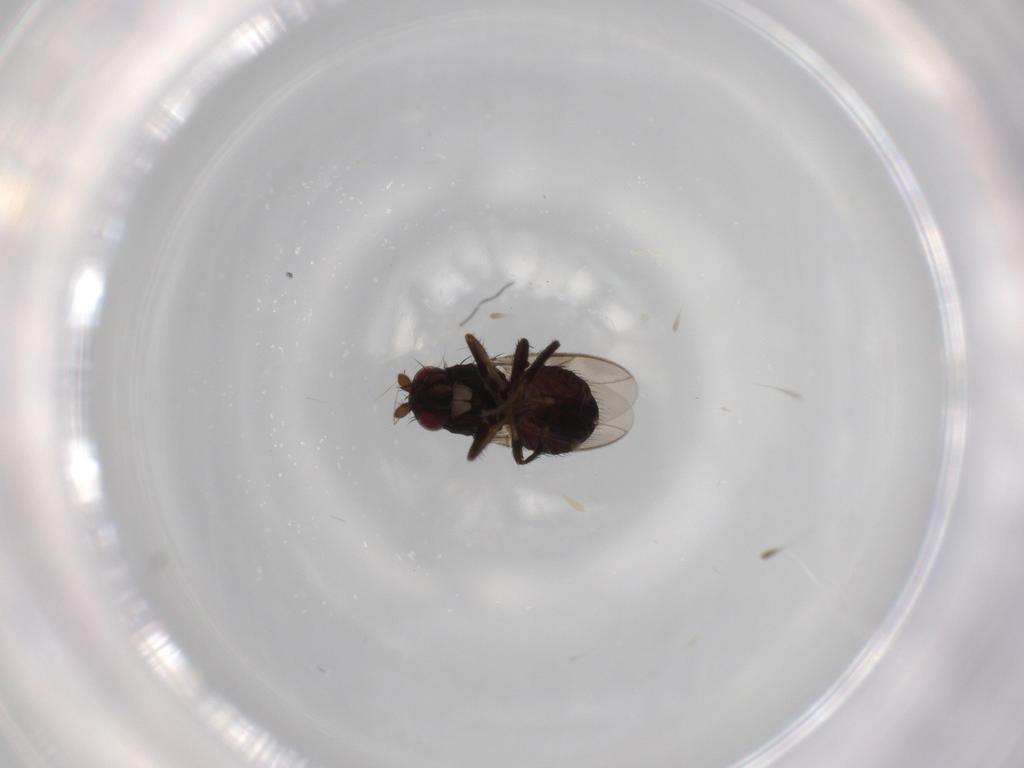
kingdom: Animalia
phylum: Arthropoda
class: Insecta
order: Diptera
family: Sphaeroceridae
